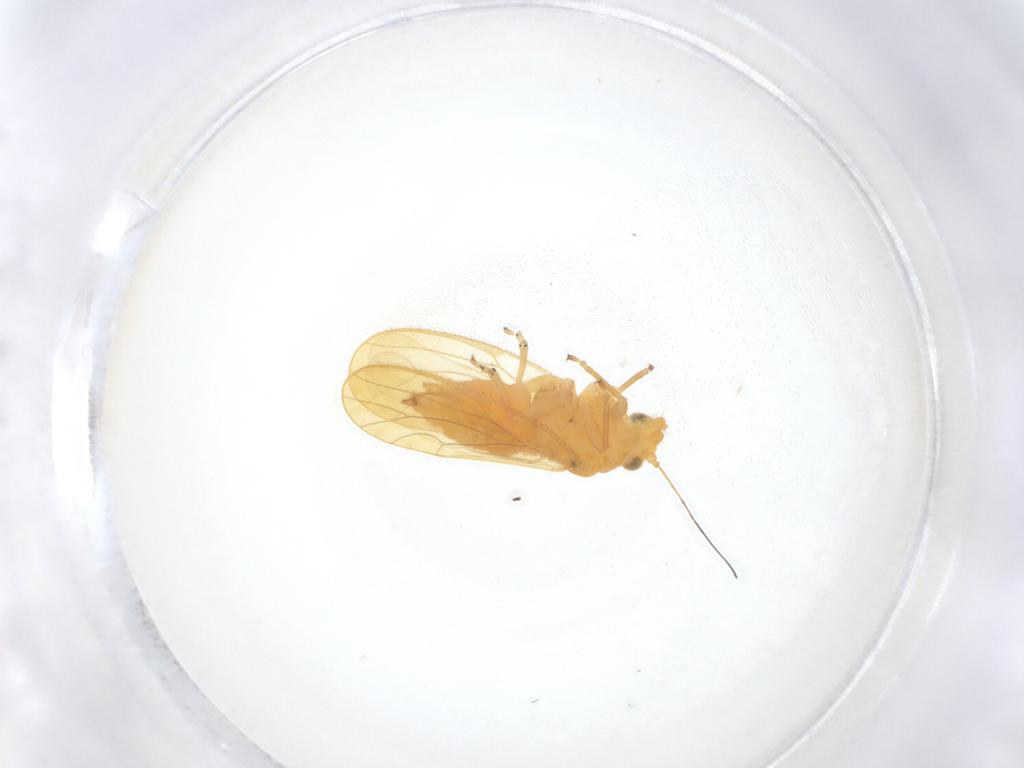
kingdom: Animalia
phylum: Arthropoda
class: Insecta
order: Hemiptera
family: Psyllidae
